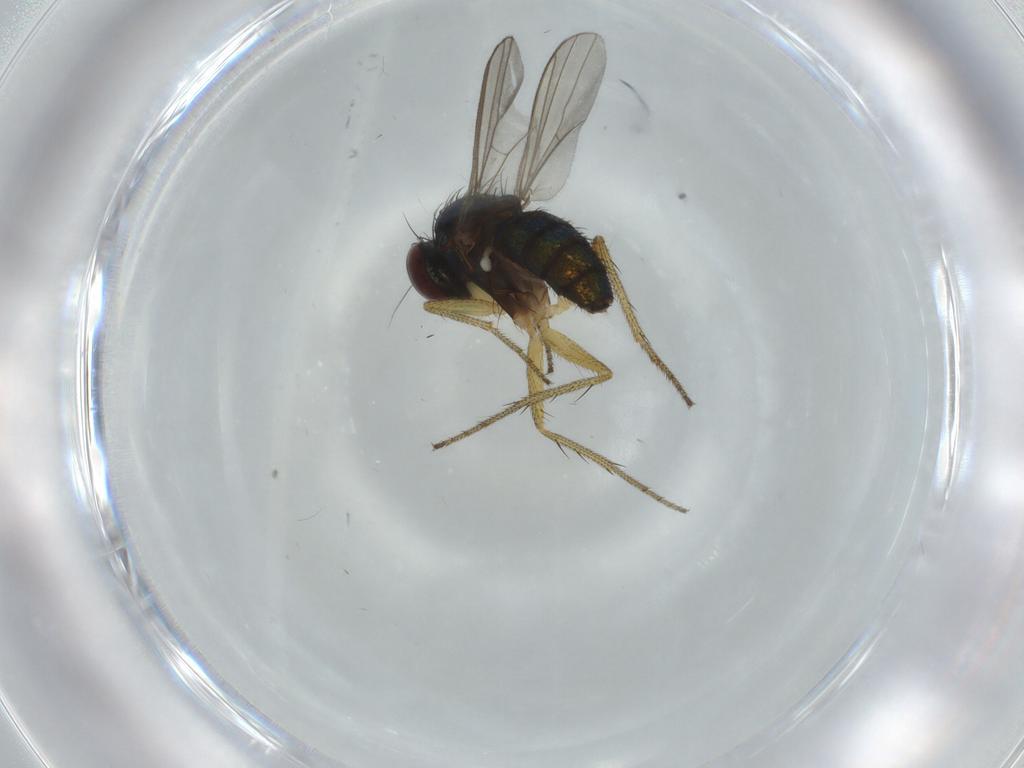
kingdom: Animalia
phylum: Arthropoda
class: Insecta
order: Diptera
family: Dolichopodidae
